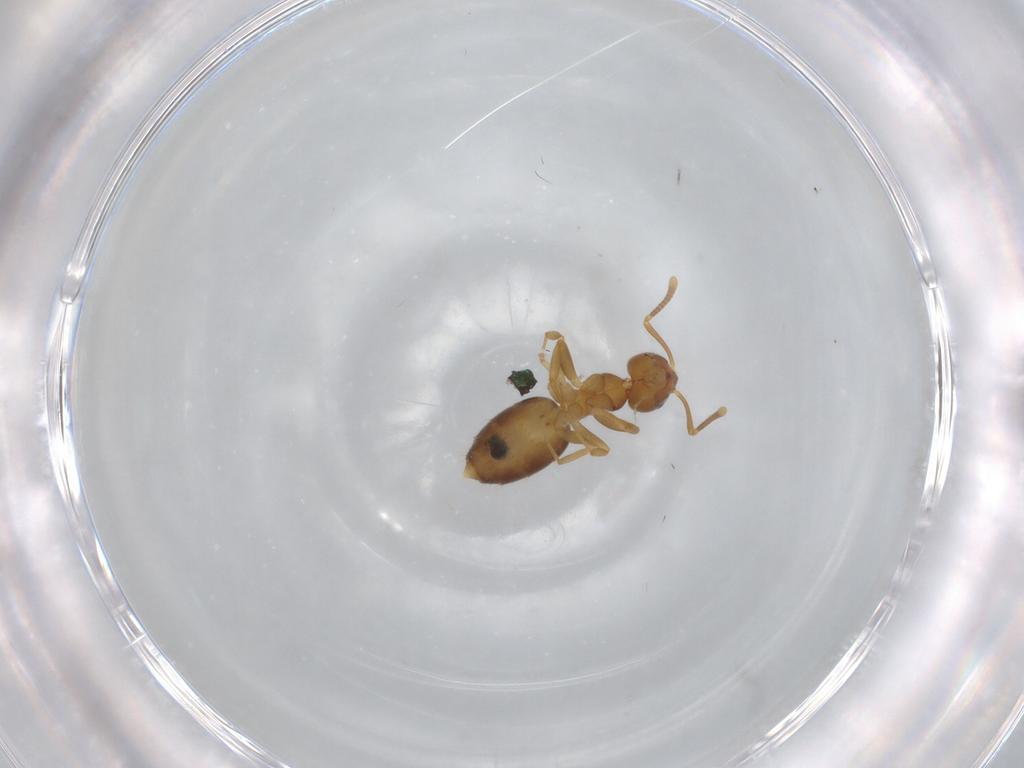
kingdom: Animalia
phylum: Arthropoda
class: Insecta
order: Hymenoptera
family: Formicidae
